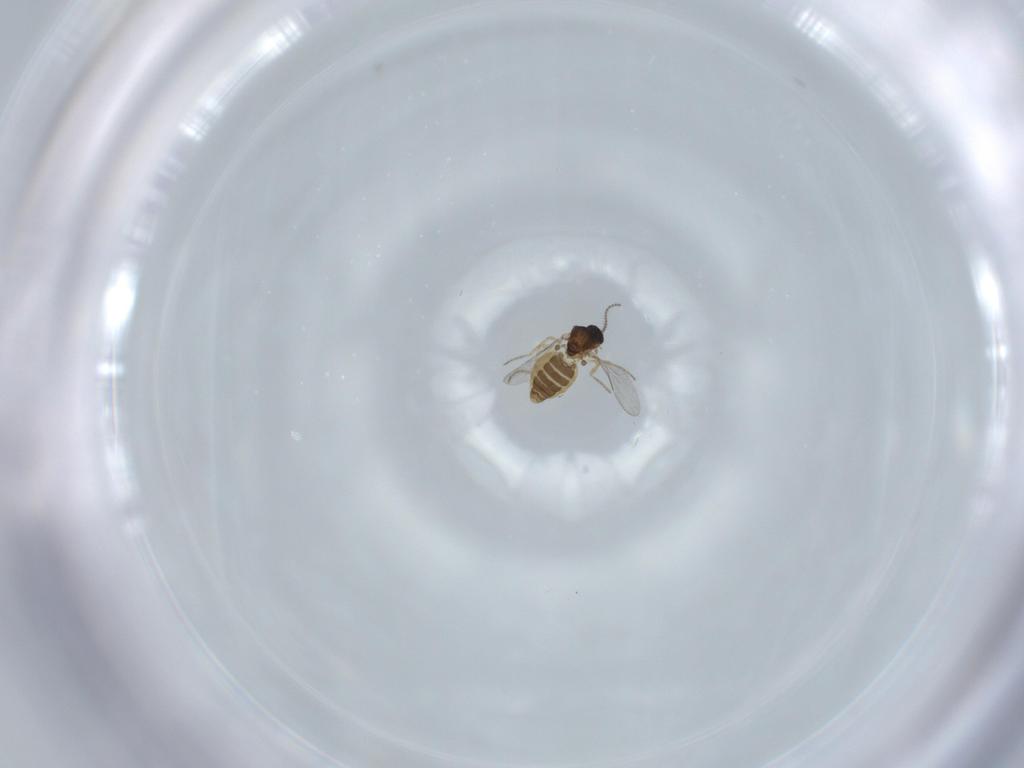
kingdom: Animalia
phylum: Arthropoda
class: Insecta
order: Diptera
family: Ceratopogonidae
